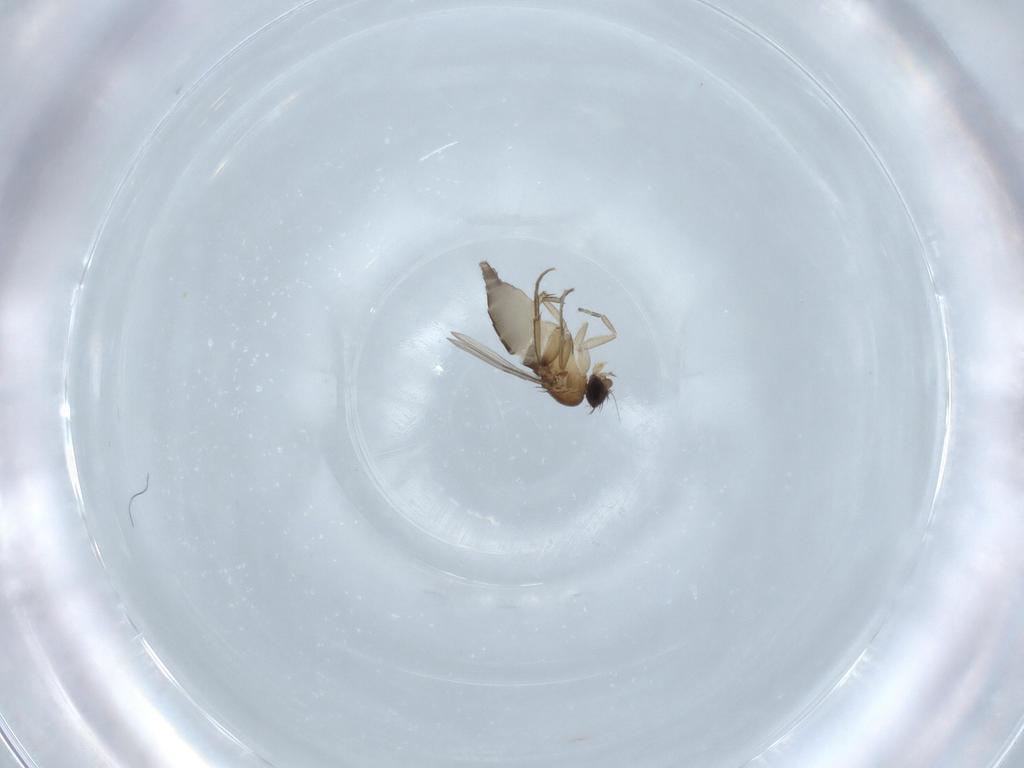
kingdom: Animalia
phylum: Arthropoda
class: Insecta
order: Diptera
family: Phoridae
